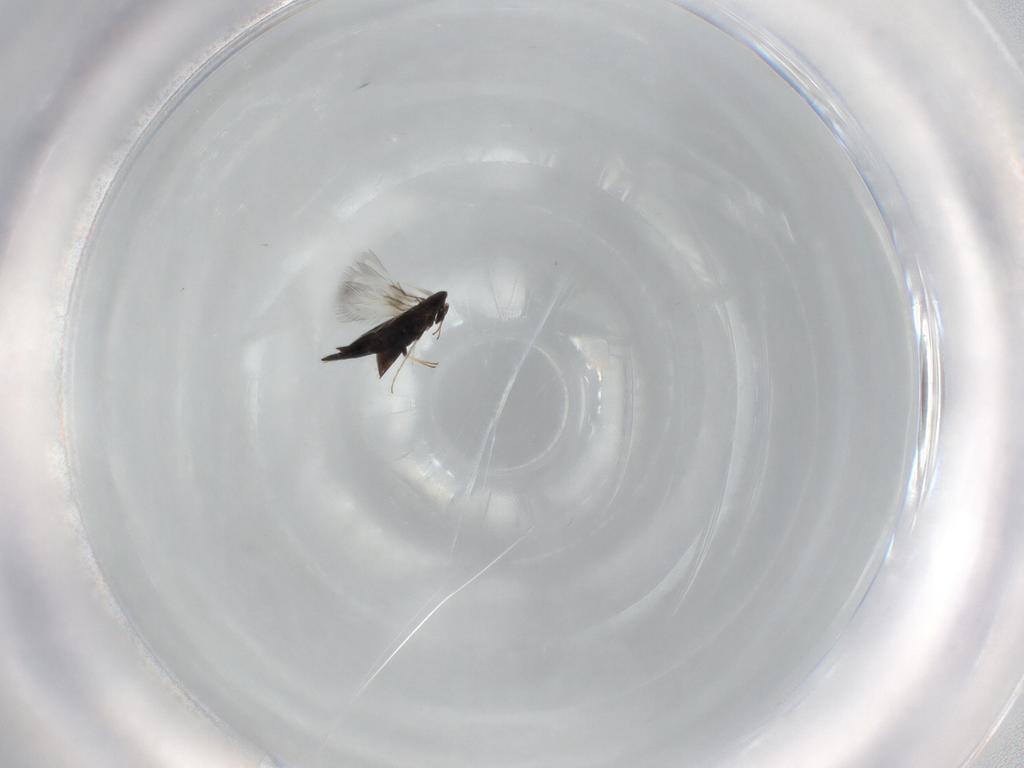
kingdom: Animalia
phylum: Arthropoda
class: Insecta
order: Hymenoptera
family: Signiphoridae
